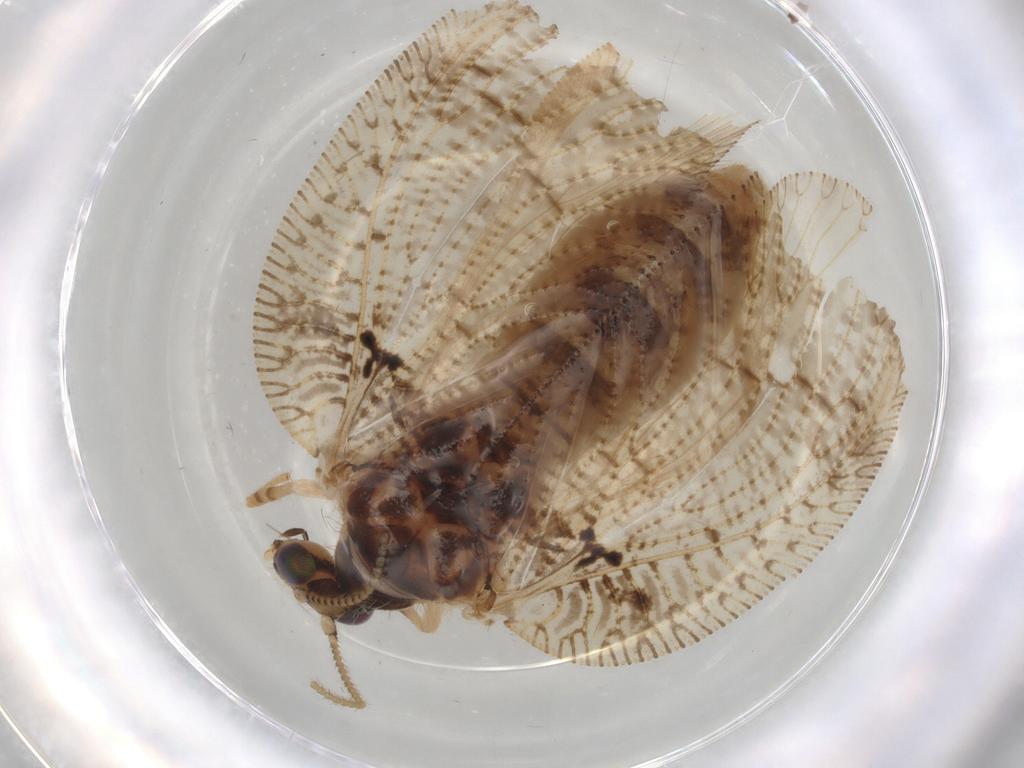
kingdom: Animalia
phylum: Arthropoda
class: Insecta
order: Neuroptera
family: Hemerobiidae
